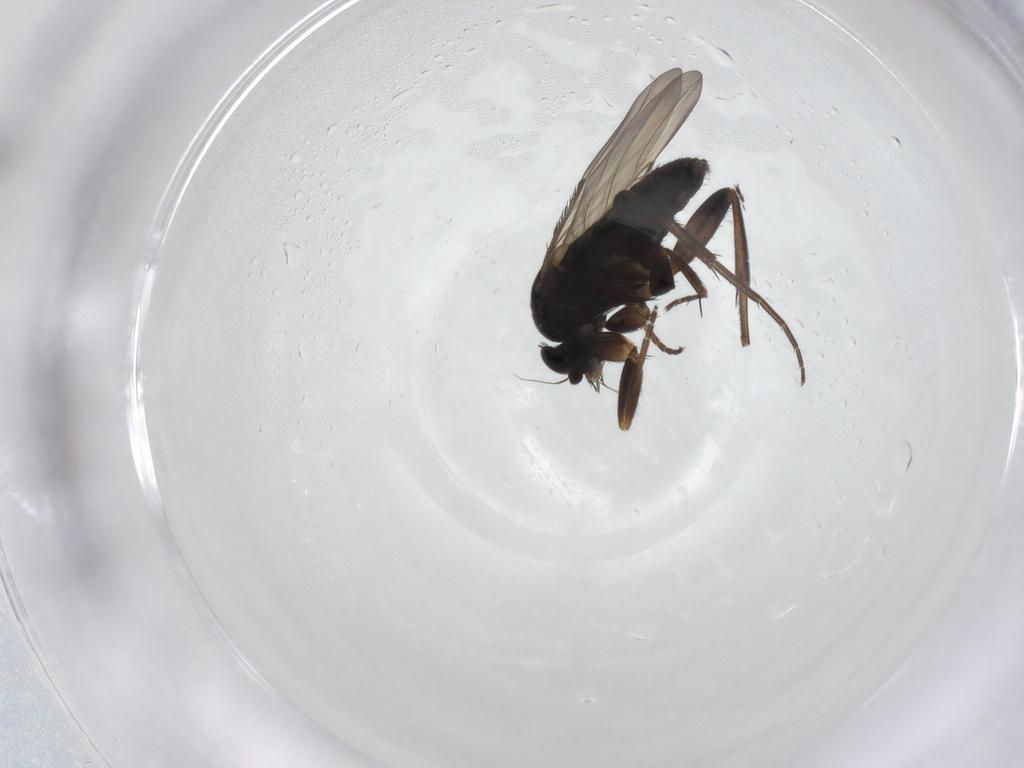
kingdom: Animalia
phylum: Arthropoda
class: Insecta
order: Diptera
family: Phoridae
